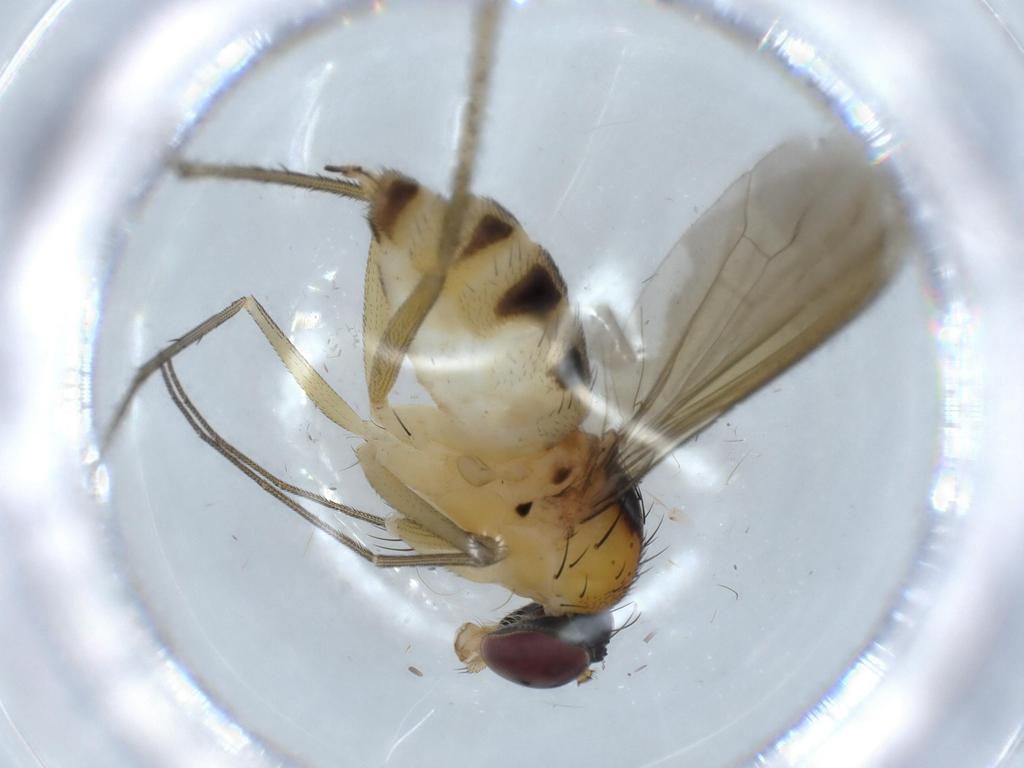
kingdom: Animalia
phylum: Arthropoda
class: Insecta
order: Diptera
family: Dolichopodidae
